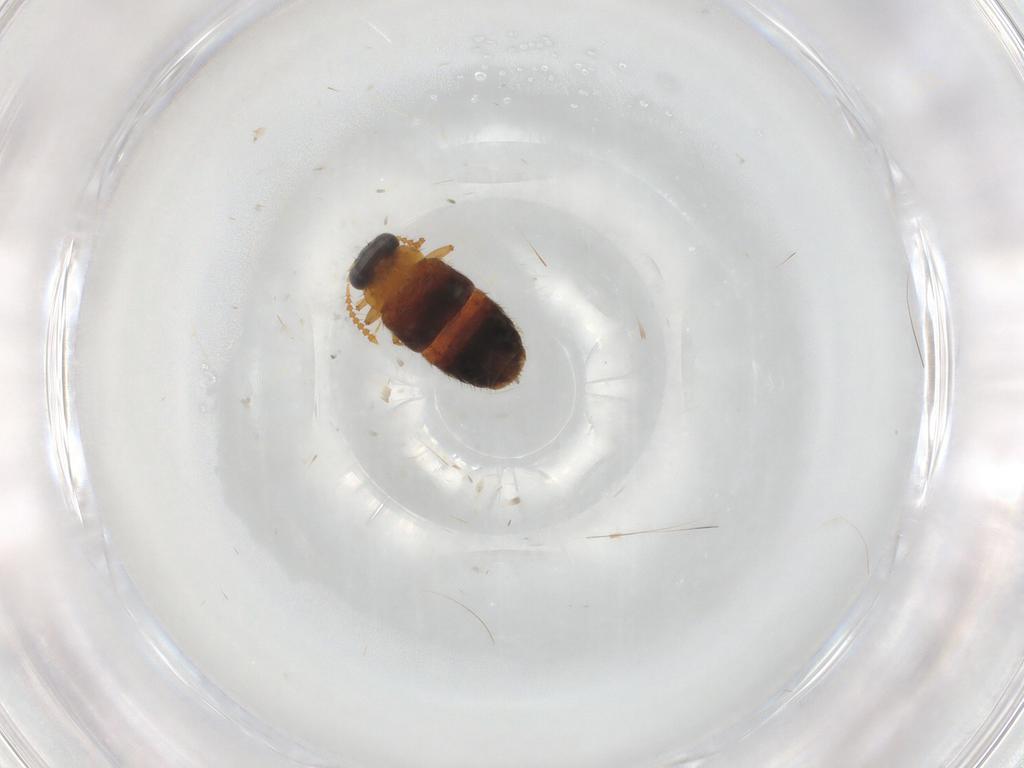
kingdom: Animalia
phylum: Arthropoda
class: Insecta
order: Coleoptera
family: Staphylinidae
